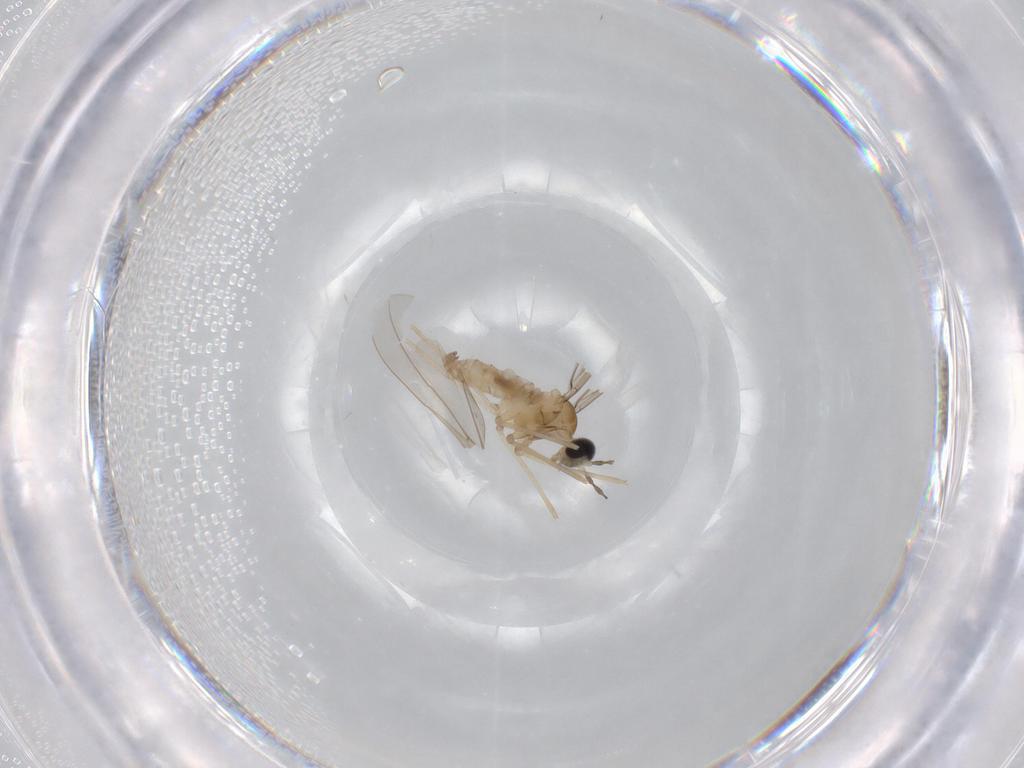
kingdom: Animalia
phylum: Arthropoda
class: Insecta
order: Diptera
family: Cecidomyiidae
